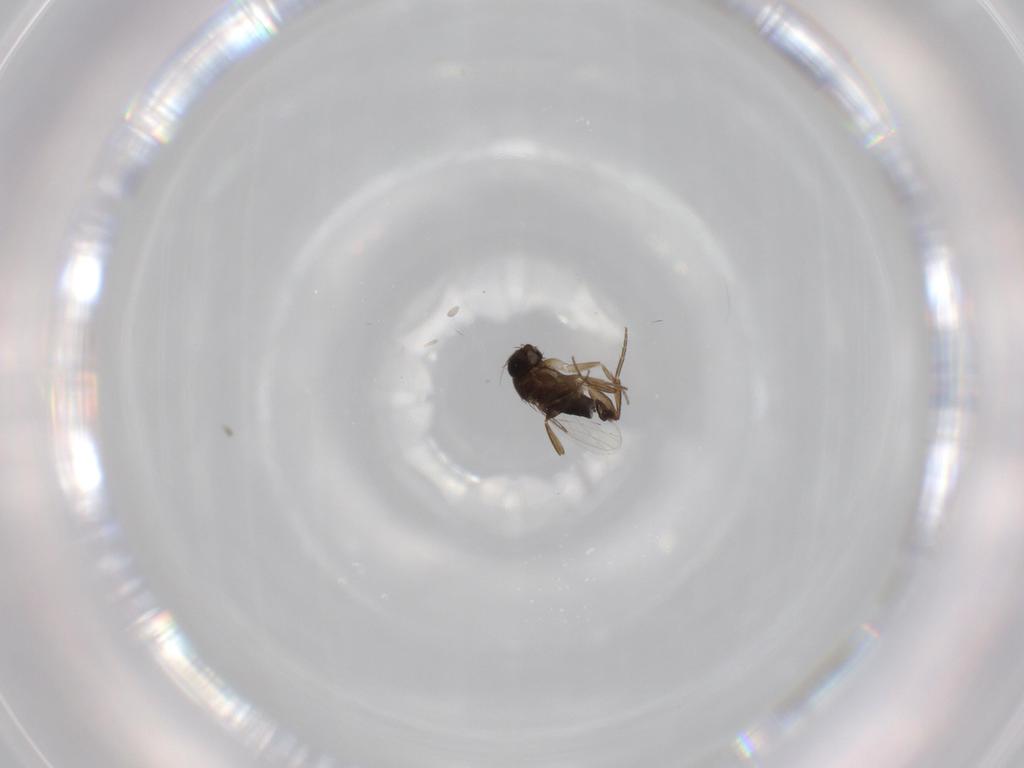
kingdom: Animalia
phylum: Arthropoda
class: Insecta
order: Diptera
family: Phoridae
